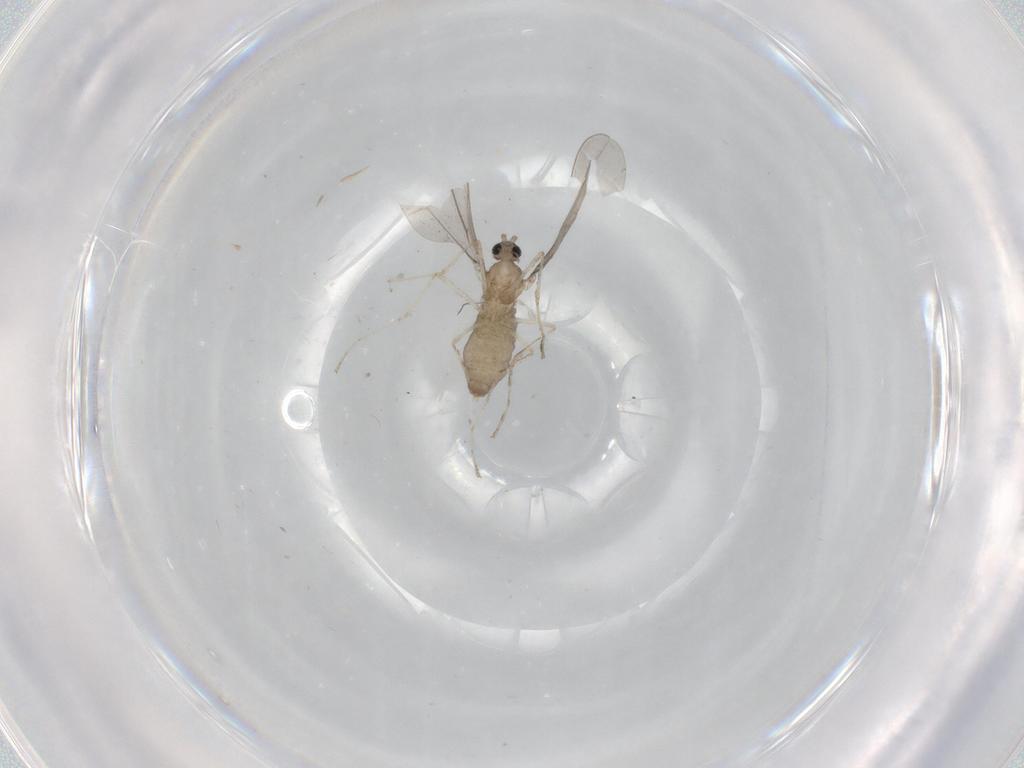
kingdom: Animalia
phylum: Arthropoda
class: Insecta
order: Diptera
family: Cecidomyiidae
